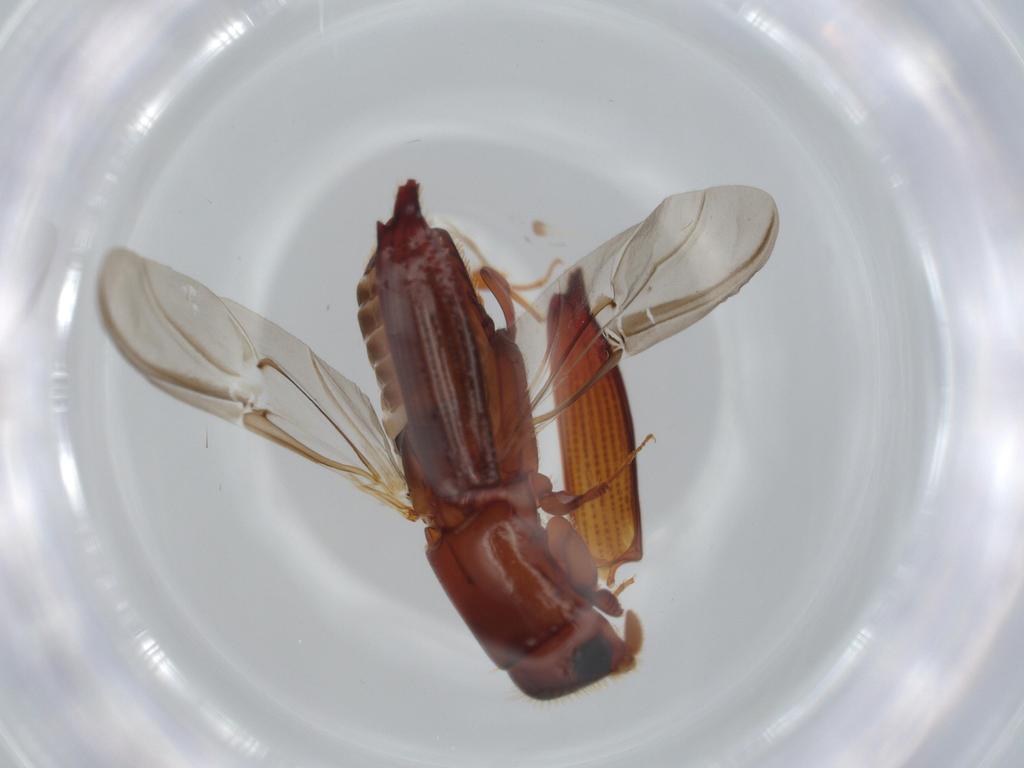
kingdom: Animalia
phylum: Arthropoda
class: Insecta
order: Coleoptera
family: Curculionidae
